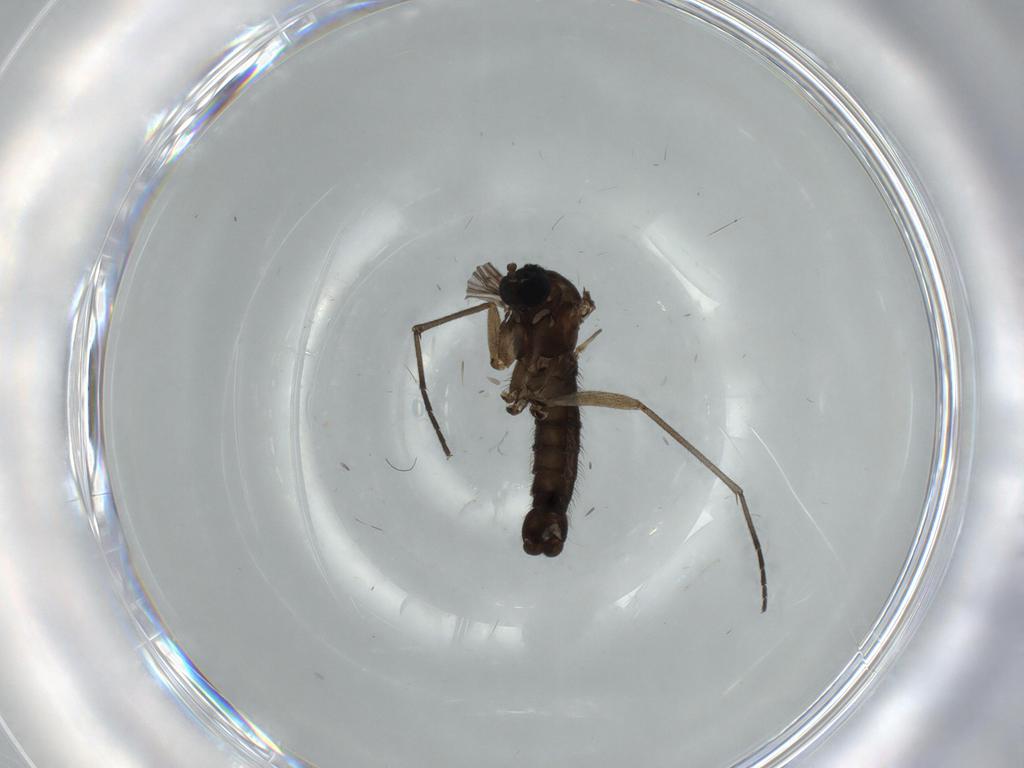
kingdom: Animalia
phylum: Arthropoda
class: Insecta
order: Diptera
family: Sciaridae
